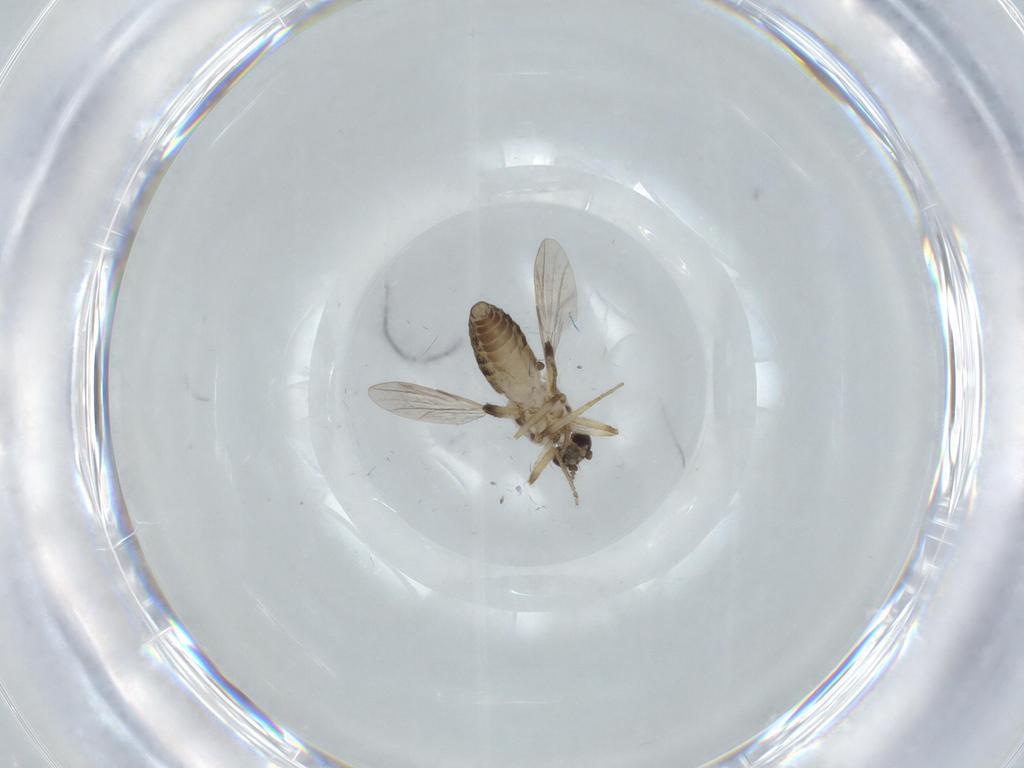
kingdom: Animalia
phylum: Arthropoda
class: Insecta
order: Diptera
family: Ceratopogonidae
